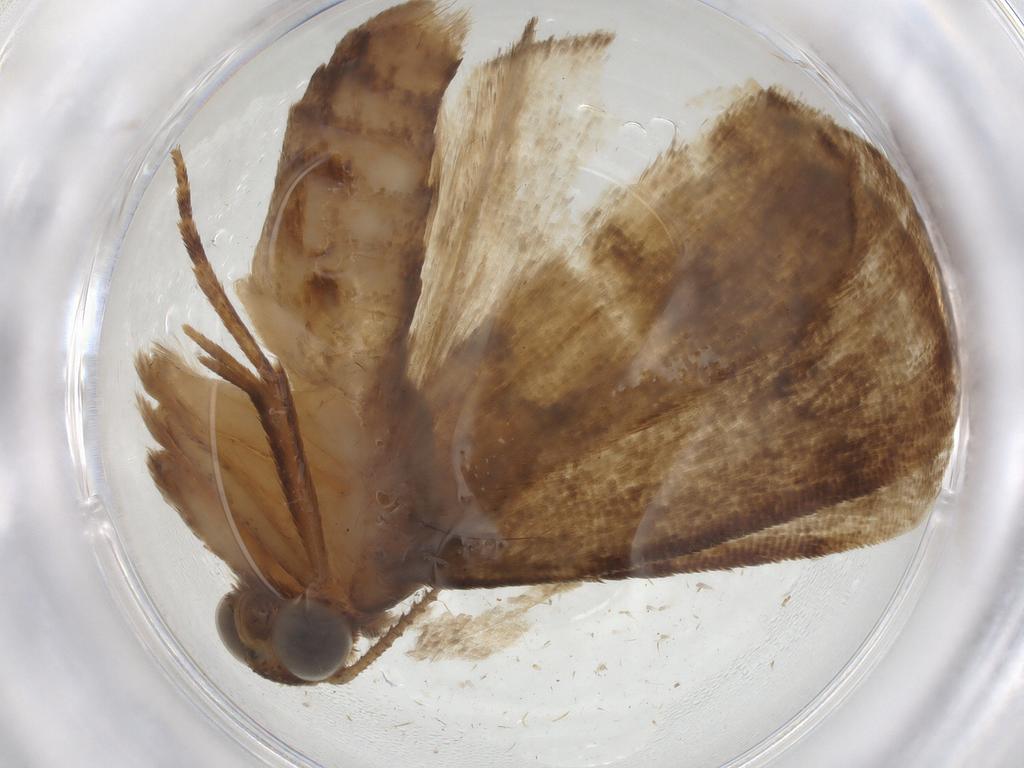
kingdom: Animalia
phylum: Arthropoda
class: Insecta
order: Lepidoptera
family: Erebidae
